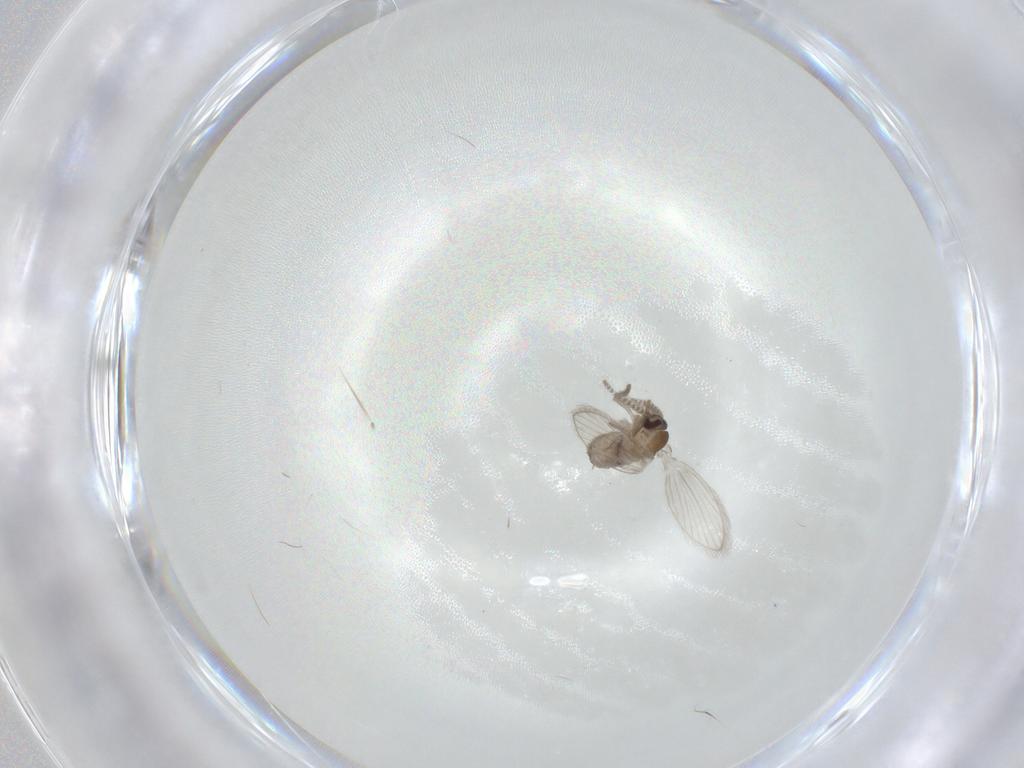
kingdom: Animalia
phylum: Arthropoda
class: Insecta
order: Diptera
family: Psychodidae
